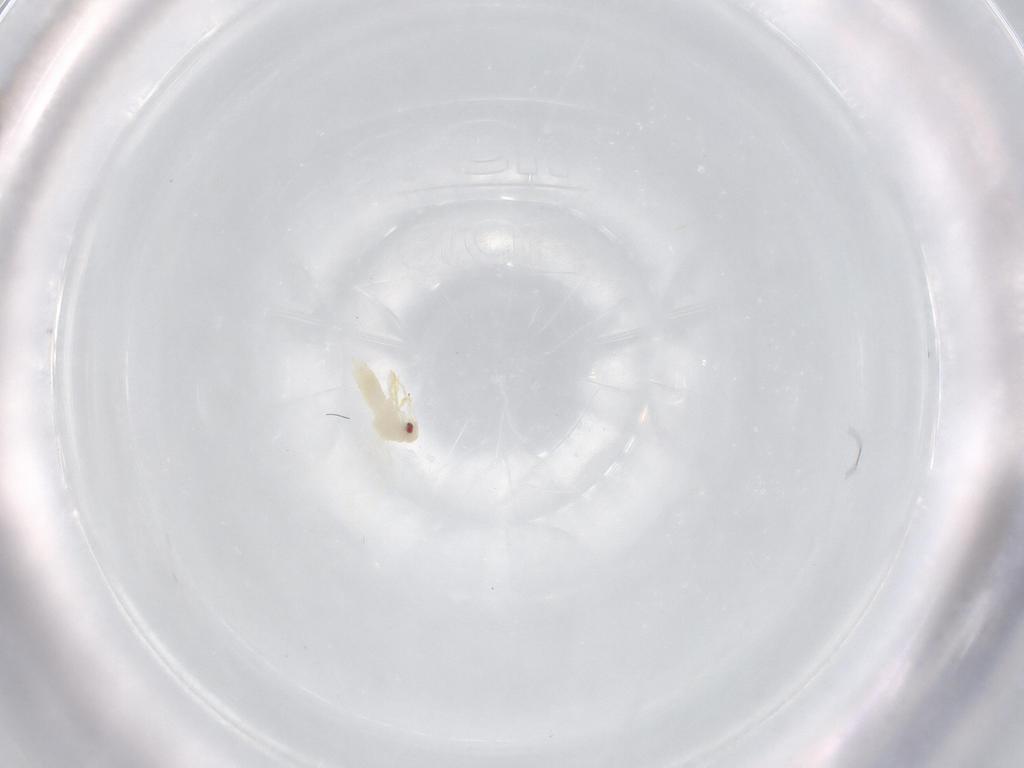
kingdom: Animalia
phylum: Arthropoda
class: Insecta
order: Hemiptera
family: Aleyrodidae
